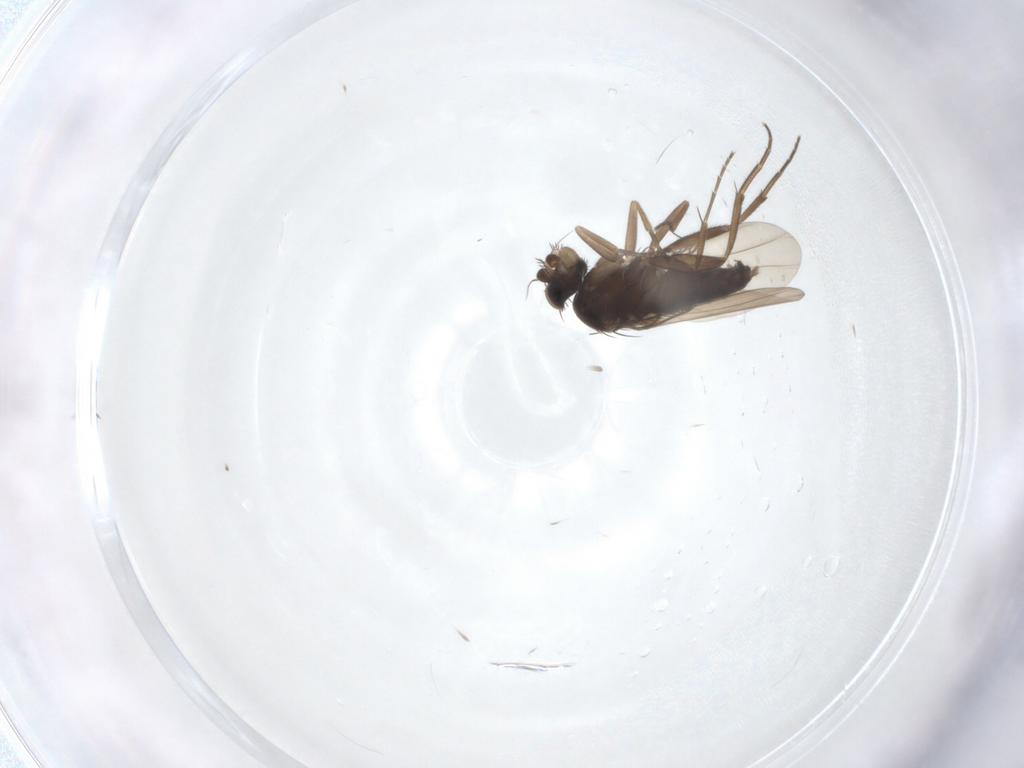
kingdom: Animalia
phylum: Arthropoda
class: Insecta
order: Diptera
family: Phoridae
